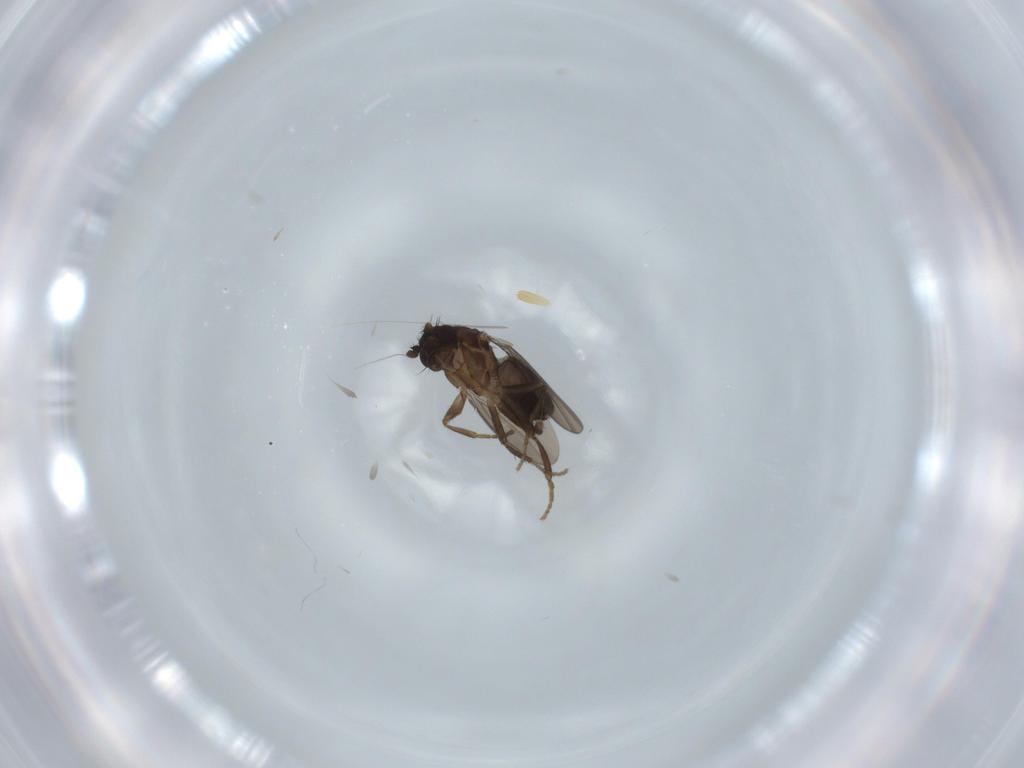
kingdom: Animalia
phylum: Arthropoda
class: Insecta
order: Diptera
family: Sphaeroceridae
